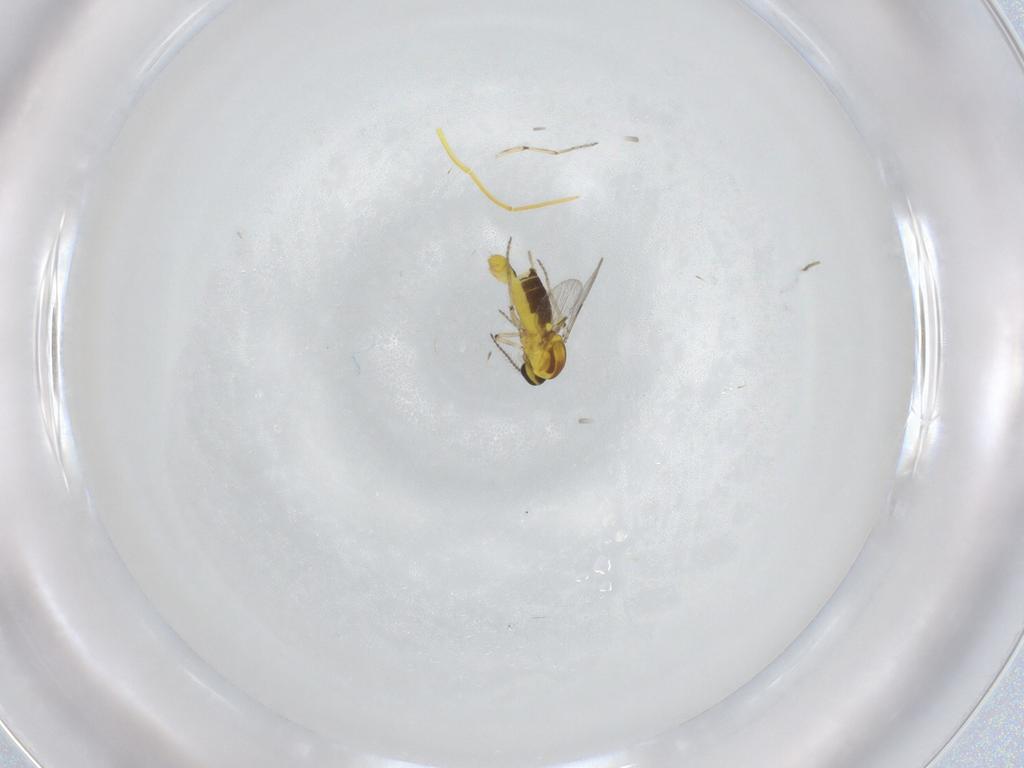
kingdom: Animalia
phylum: Arthropoda
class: Insecta
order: Diptera
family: Ceratopogonidae
